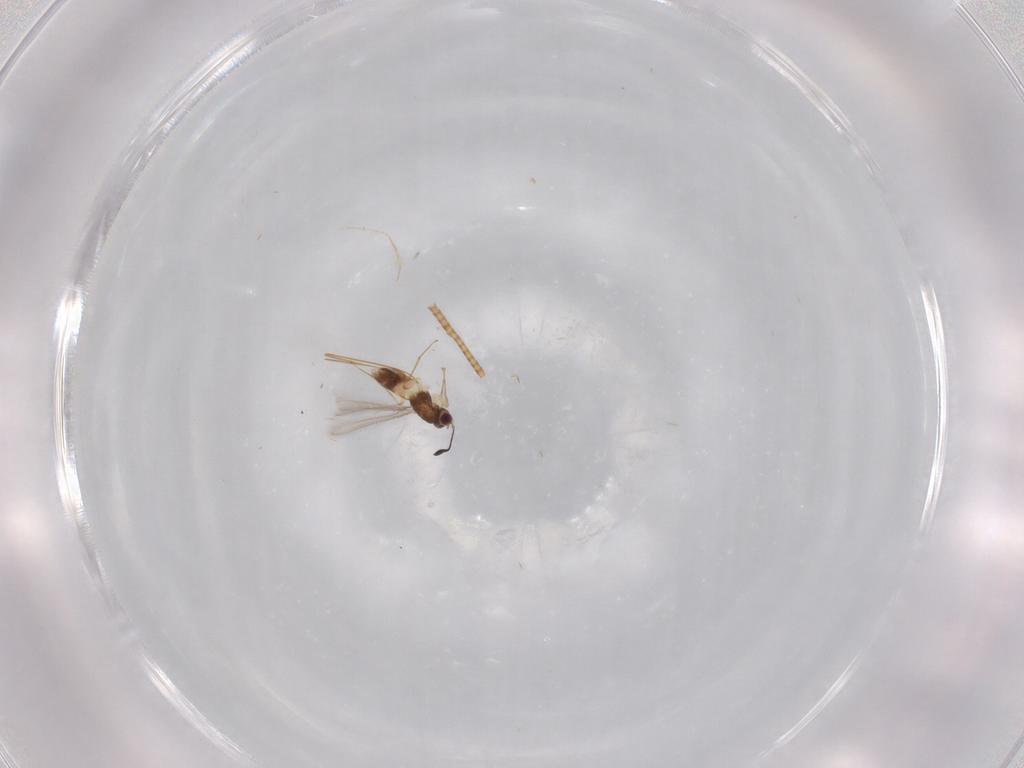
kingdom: Animalia
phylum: Arthropoda
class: Insecta
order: Hymenoptera
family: Mymaridae
